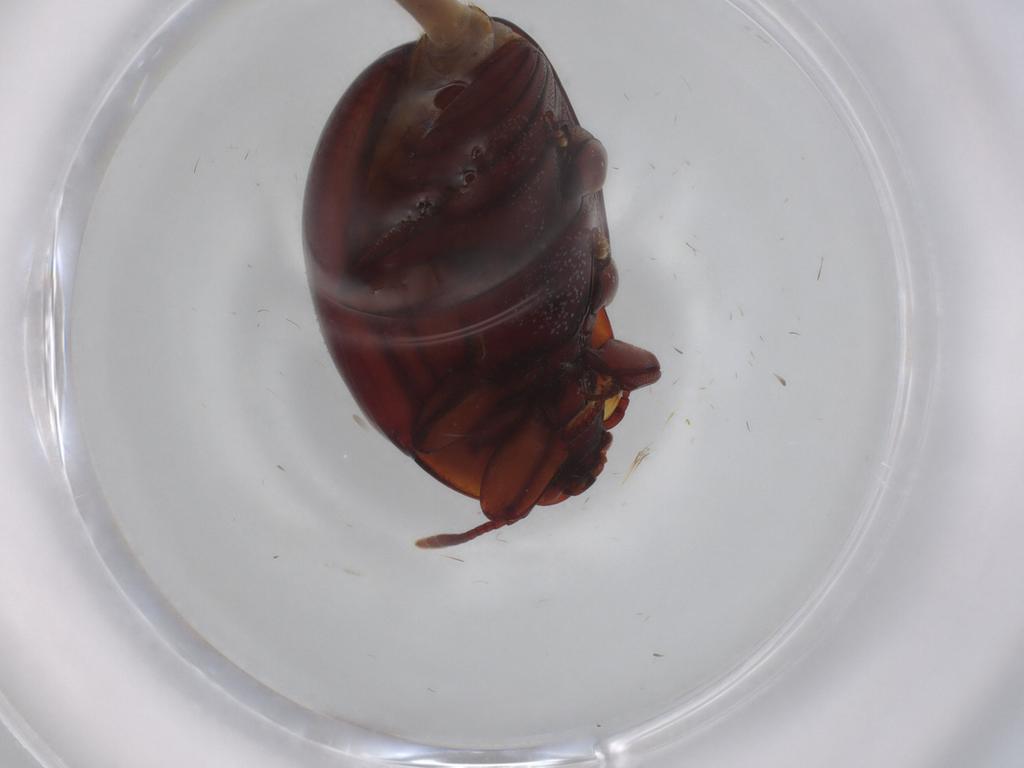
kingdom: Animalia
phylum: Arthropoda
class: Insecta
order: Coleoptera
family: Zopheridae
